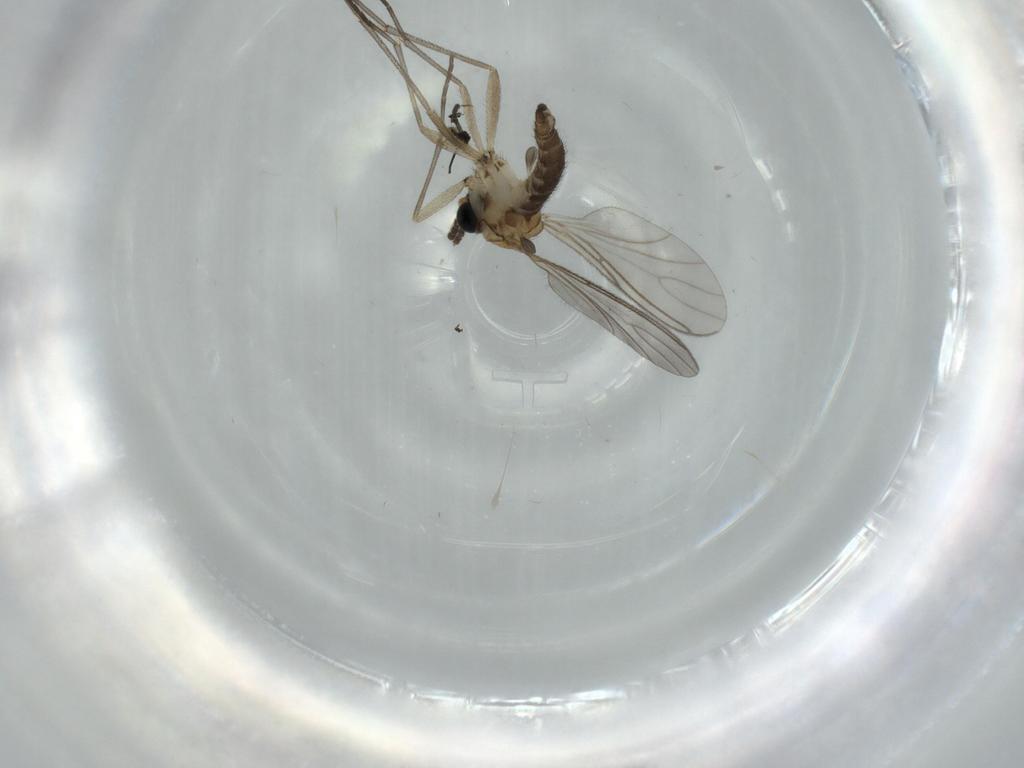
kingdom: Animalia
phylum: Arthropoda
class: Insecta
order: Diptera
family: Sciaridae
